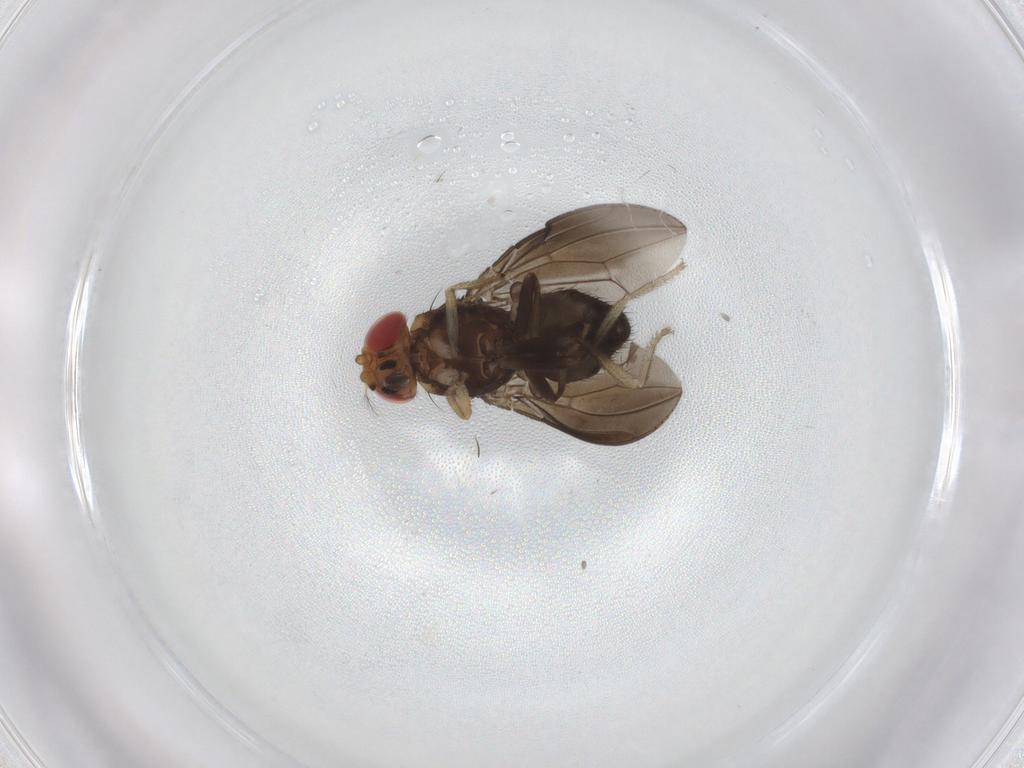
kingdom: Animalia
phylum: Arthropoda
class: Insecta
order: Diptera
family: Drosophilidae
